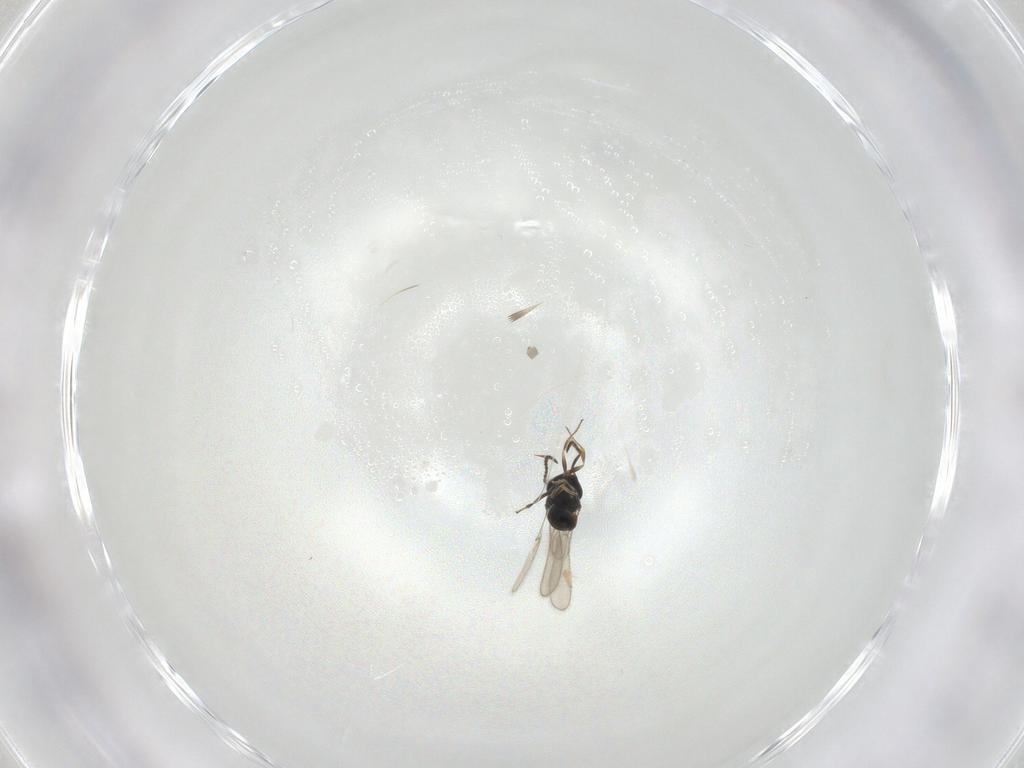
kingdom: Animalia
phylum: Arthropoda
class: Insecta
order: Hymenoptera
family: Scelionidae
